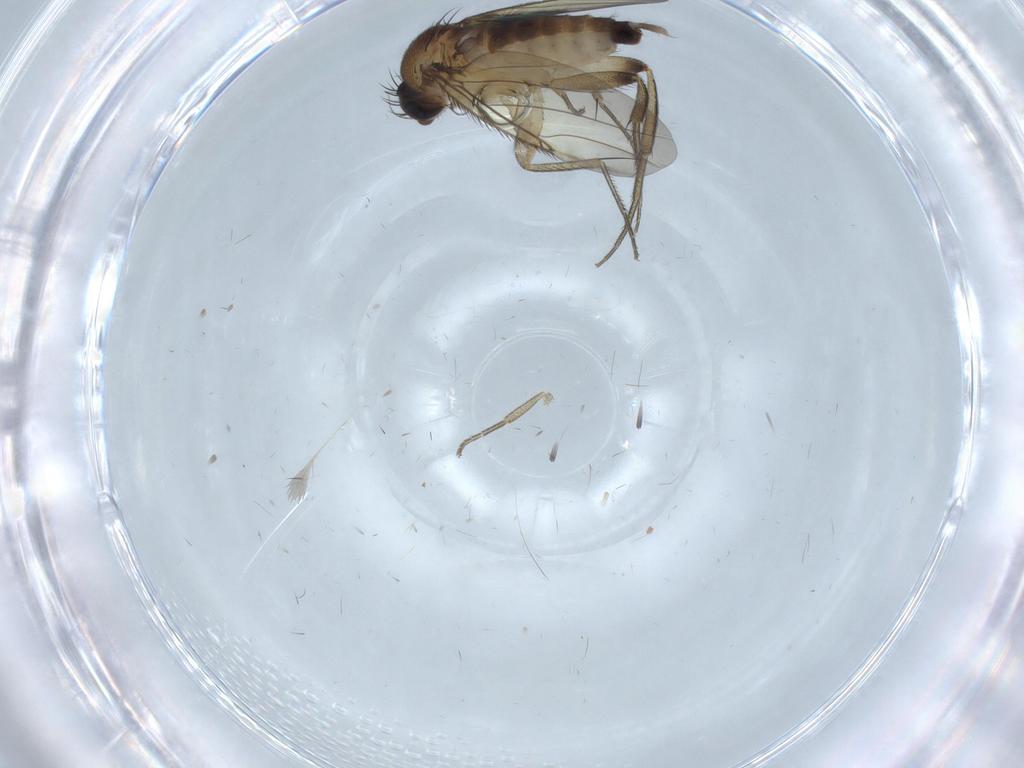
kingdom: Animalia
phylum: Arthropoda
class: Insecta
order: Diptera
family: Phoridae
